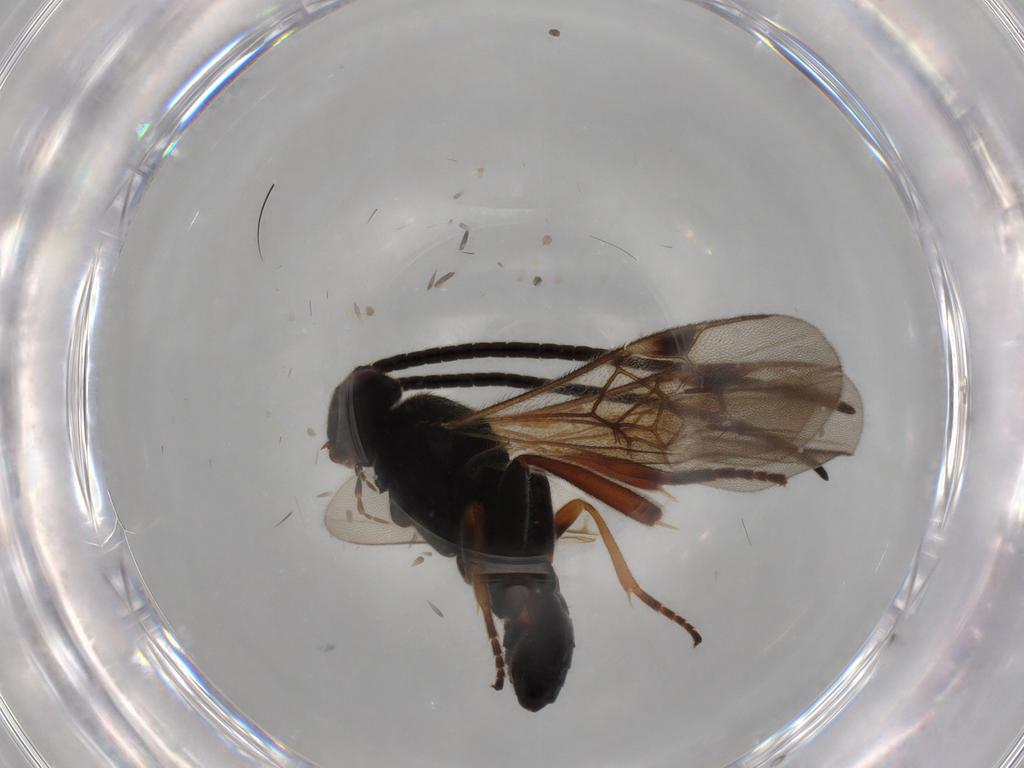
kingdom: Animalia
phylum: Arthropoda
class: Insecta
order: Hymenoptera
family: Braconidae
